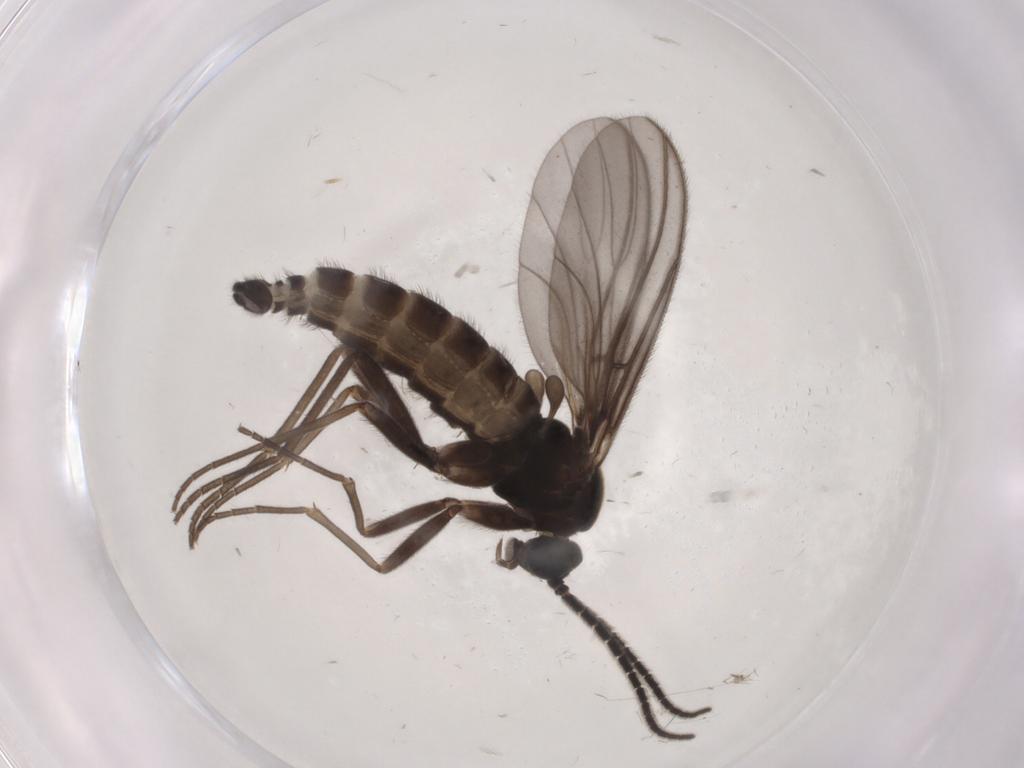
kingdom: Animalia
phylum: Arthropoda
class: Insecta
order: Diptera
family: Sciaridae
